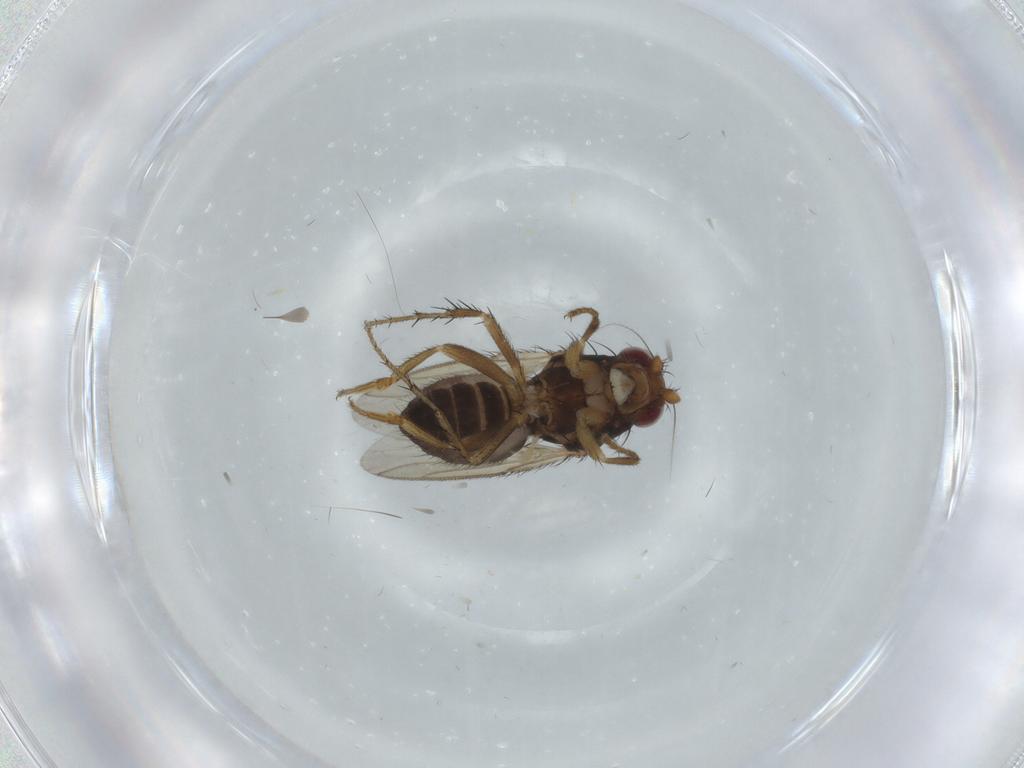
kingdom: Animalia
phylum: Arthropoda
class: Insecta
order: Diptera
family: Sphaeroceridae
